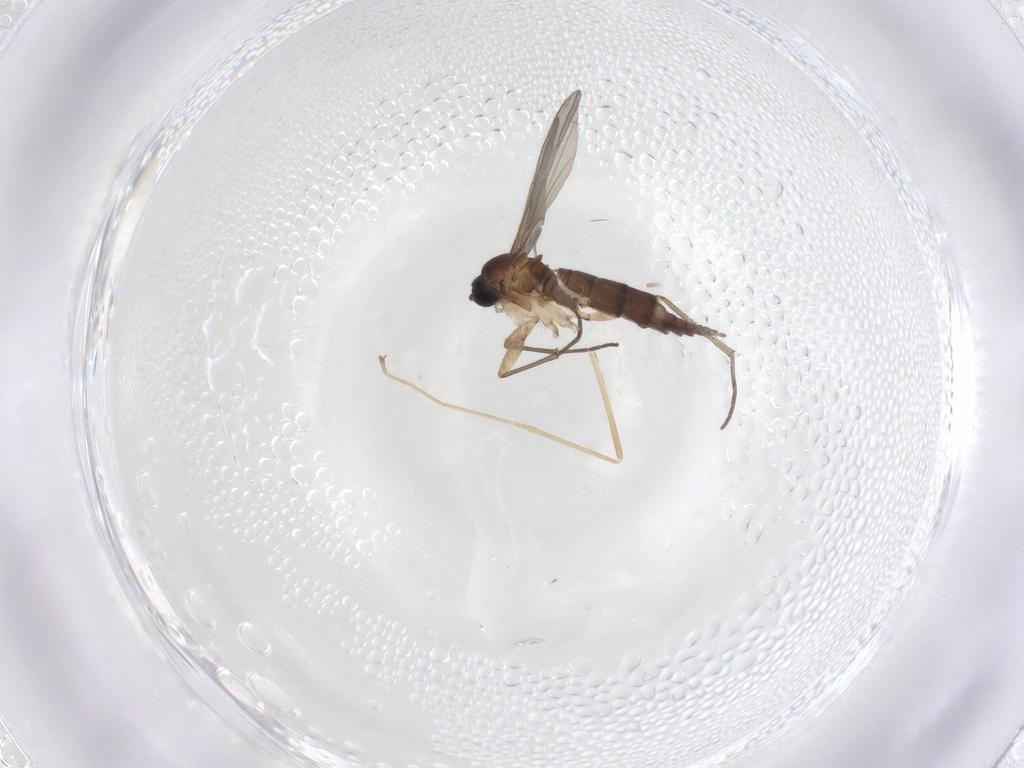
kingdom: Animalia
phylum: Arthropoda
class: Insecta
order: Diptera
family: Sciaridae
